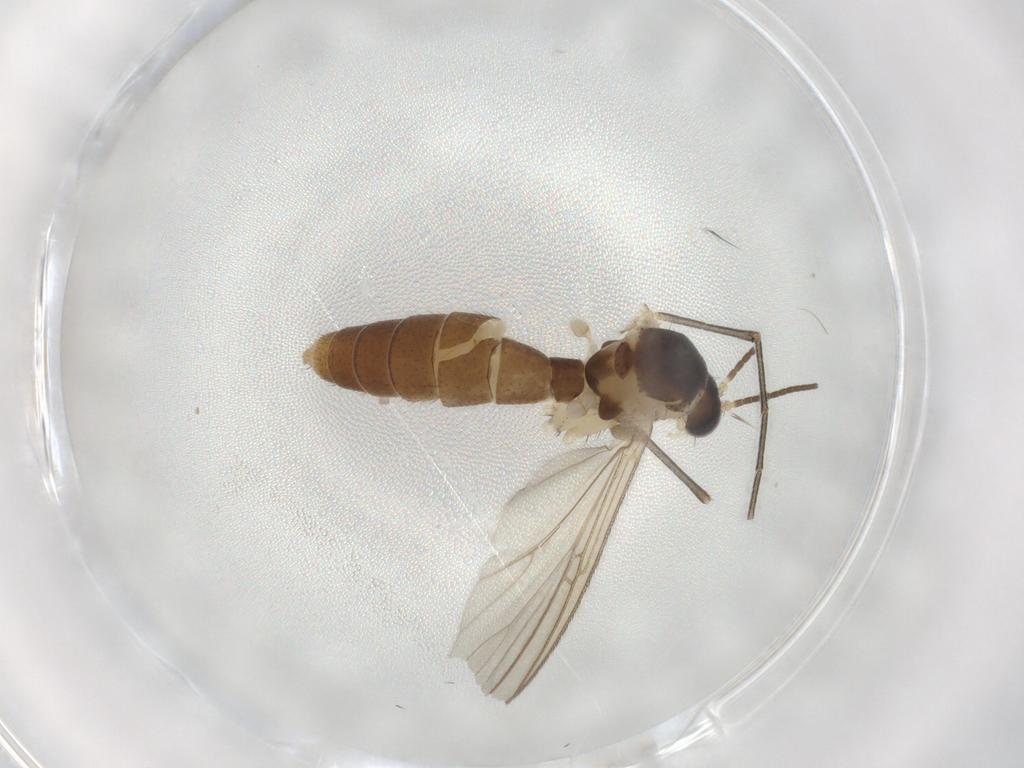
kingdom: Animalia
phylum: Arthropoda
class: Insecta
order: Diptera
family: Mycetophilidae
